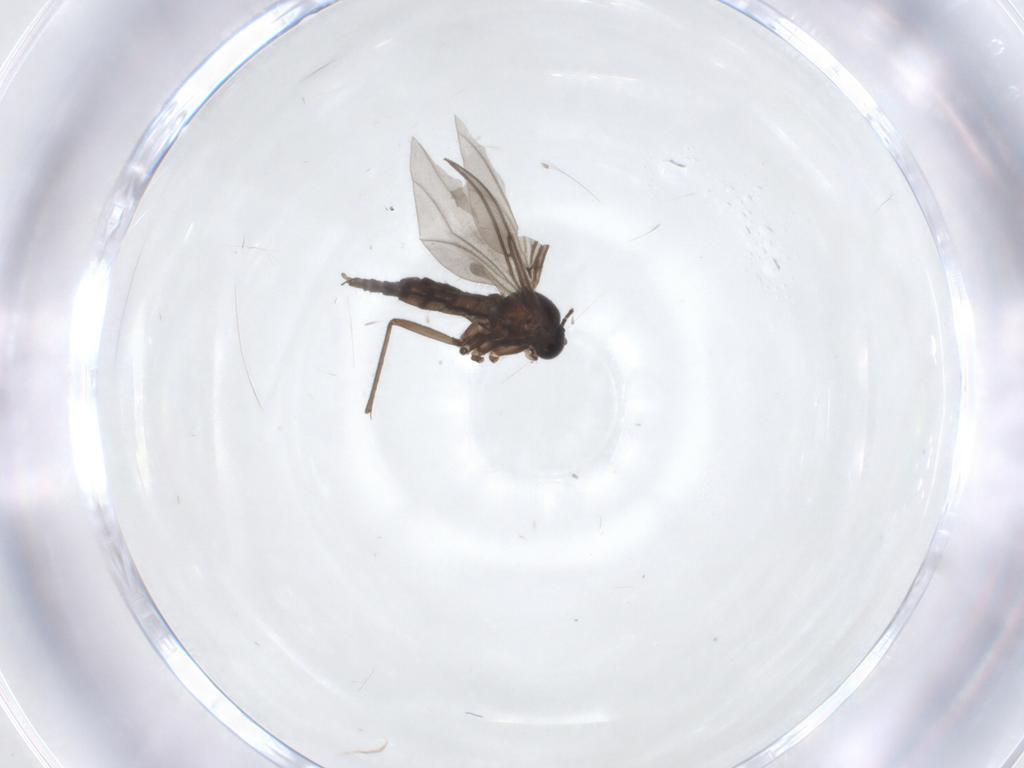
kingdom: Animalia
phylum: Arthropoda
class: Insecta
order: Diptera
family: Sciaridae
